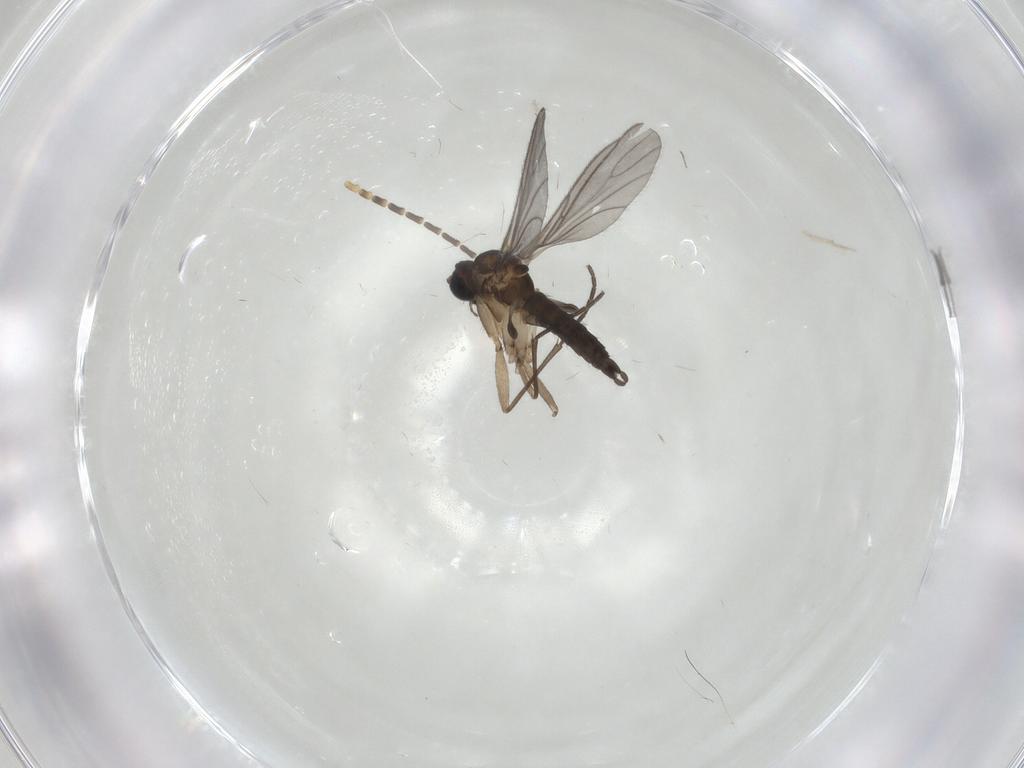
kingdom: Animalia
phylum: Arthropoda
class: Insecta
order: Diptera
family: Sciaridae
